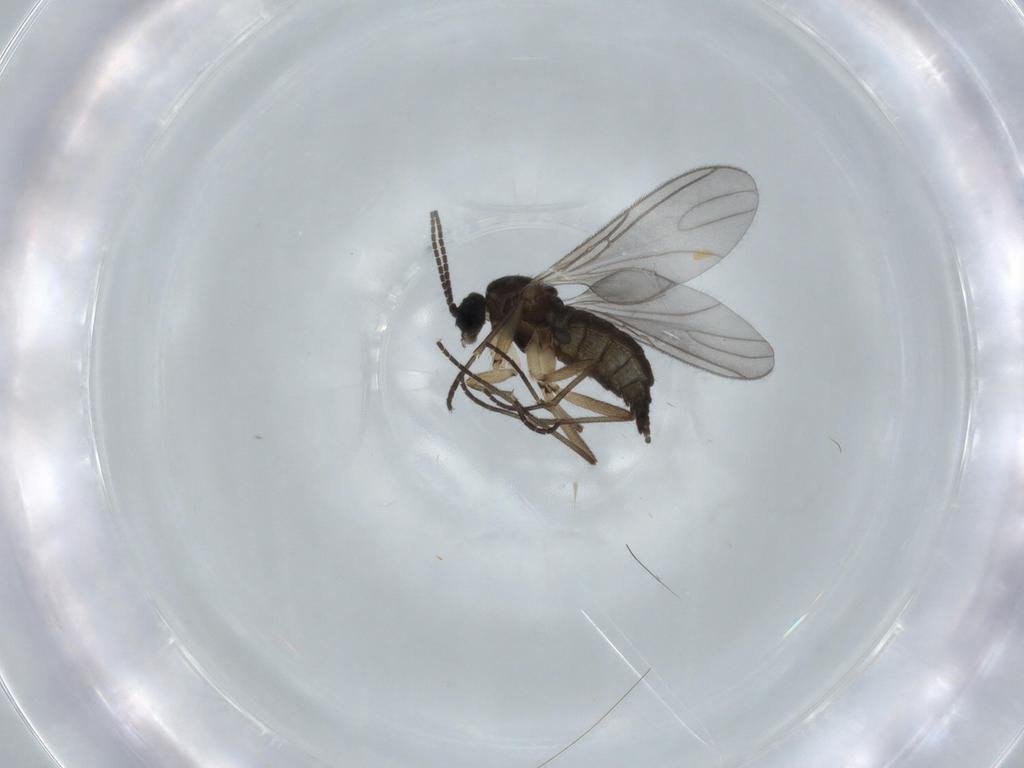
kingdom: Animalia
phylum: Arthropoda
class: Insecta
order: Diptera
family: Sciaridae
